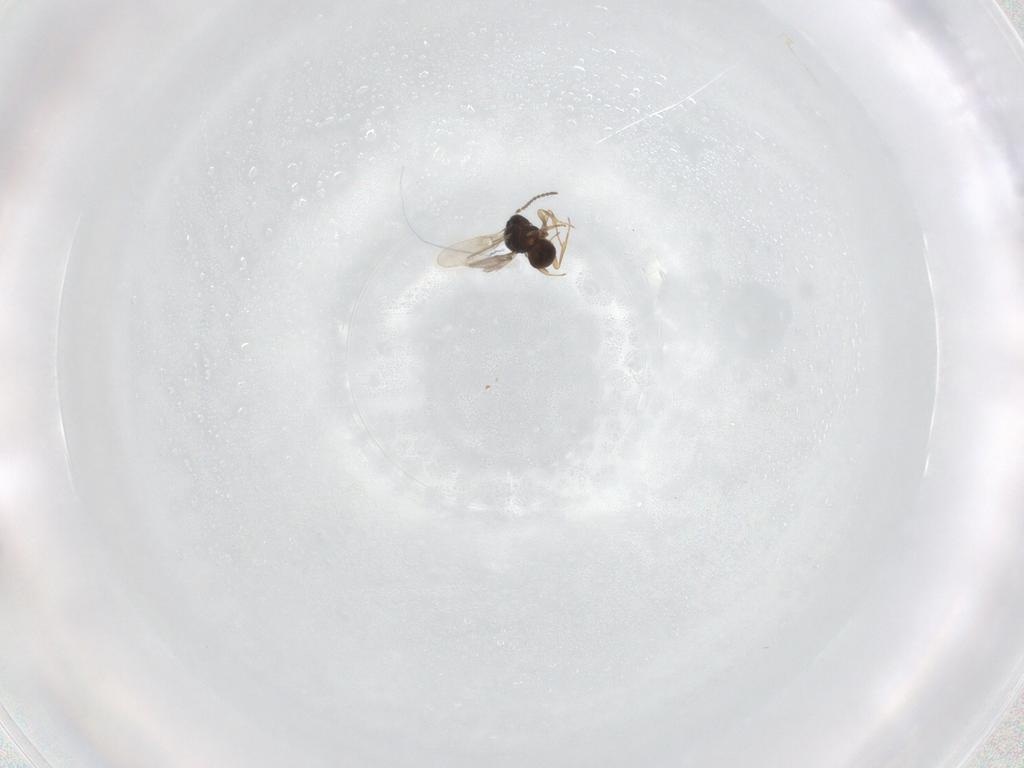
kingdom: Animalia
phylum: Arthropoda
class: Insecta
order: Hymenoptera
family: Scelionidae
